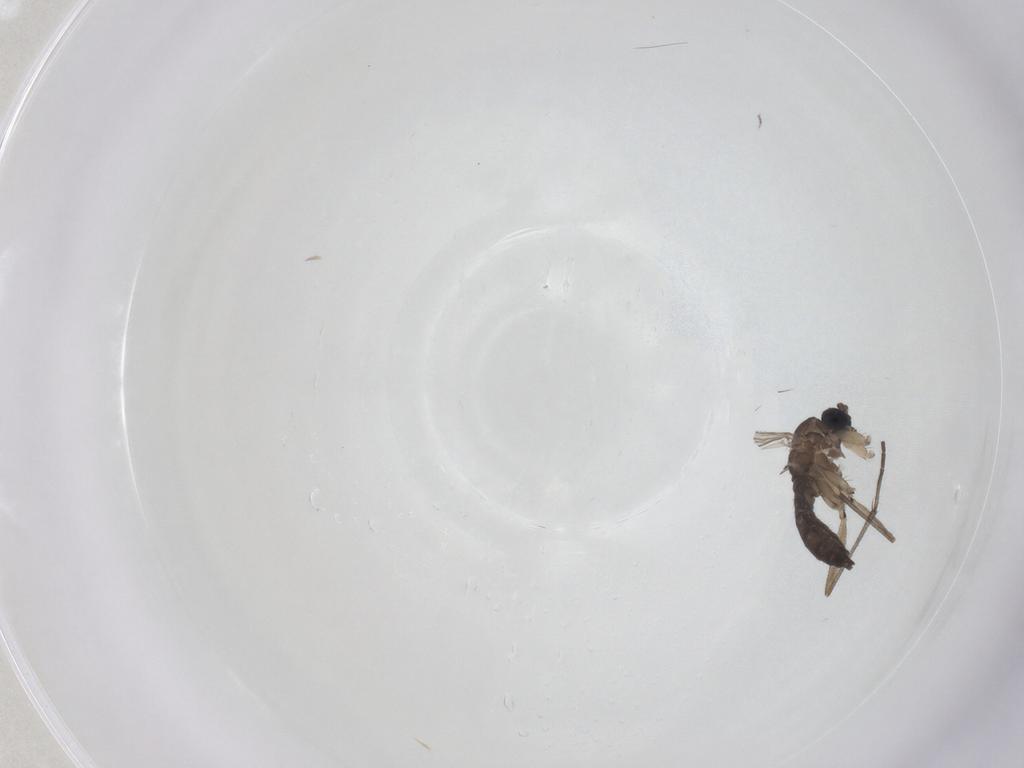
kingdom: Animalia
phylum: Arthropoda
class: Insecta
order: Diptera
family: Sciaridae
